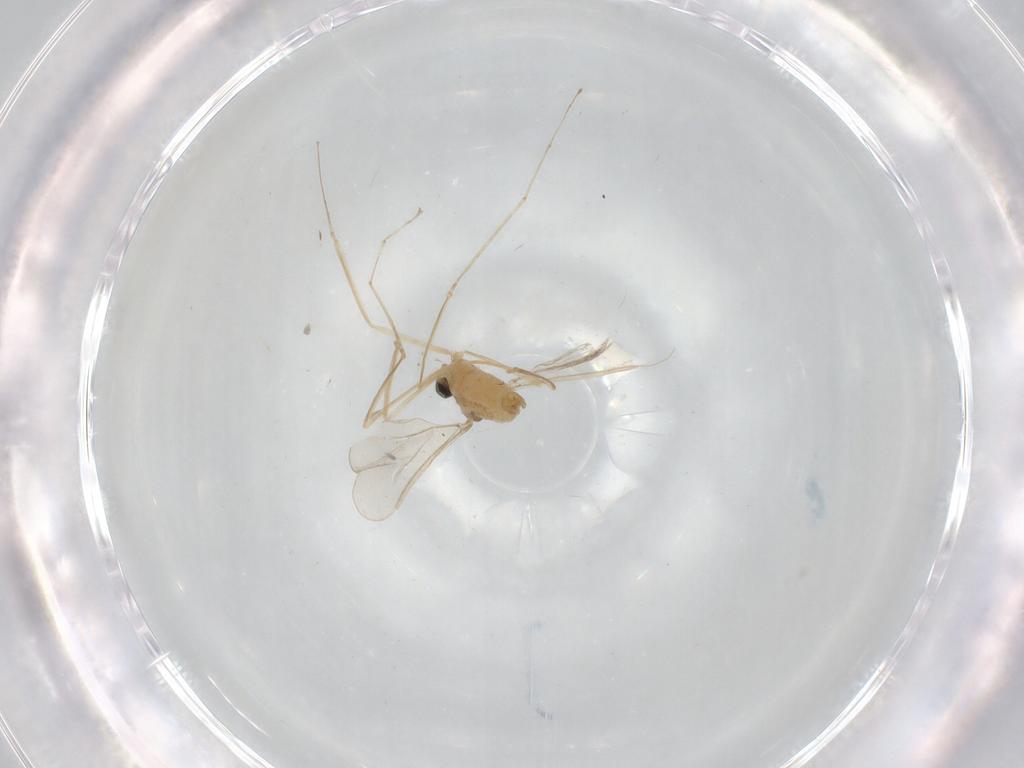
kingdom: Animalia
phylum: Arthropoda
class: Insecta
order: Diptera
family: Cecidomyiidae
